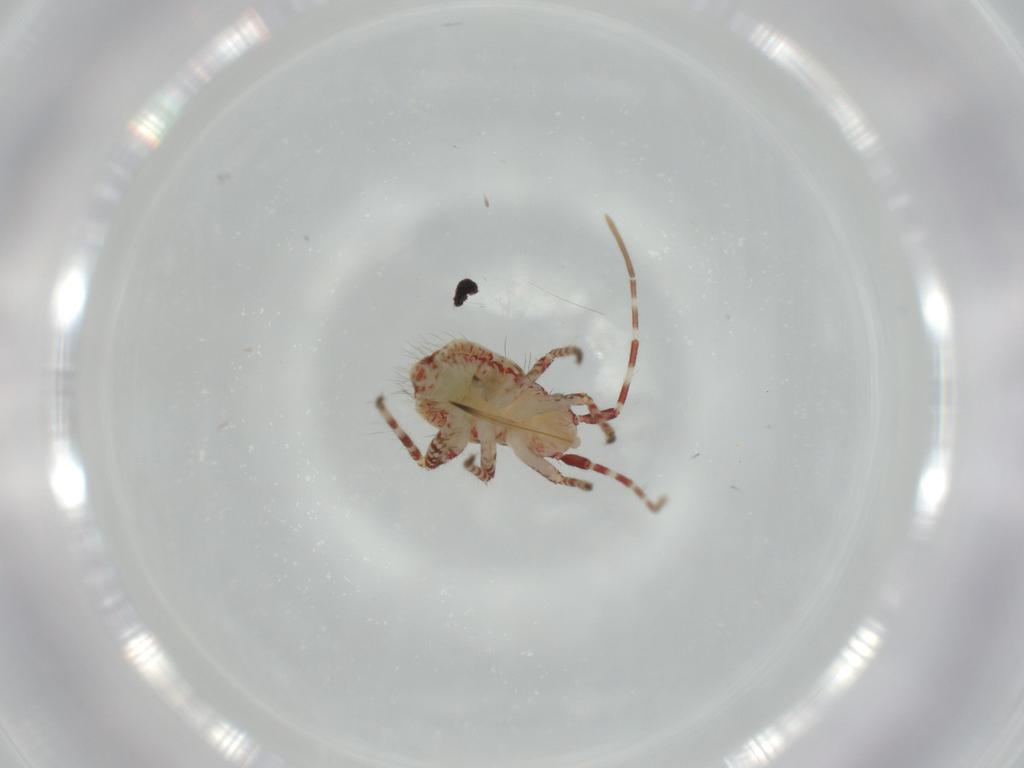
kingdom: Animalia
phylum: Arthropoda
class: Insecta
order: Hemiptera
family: Miridae
